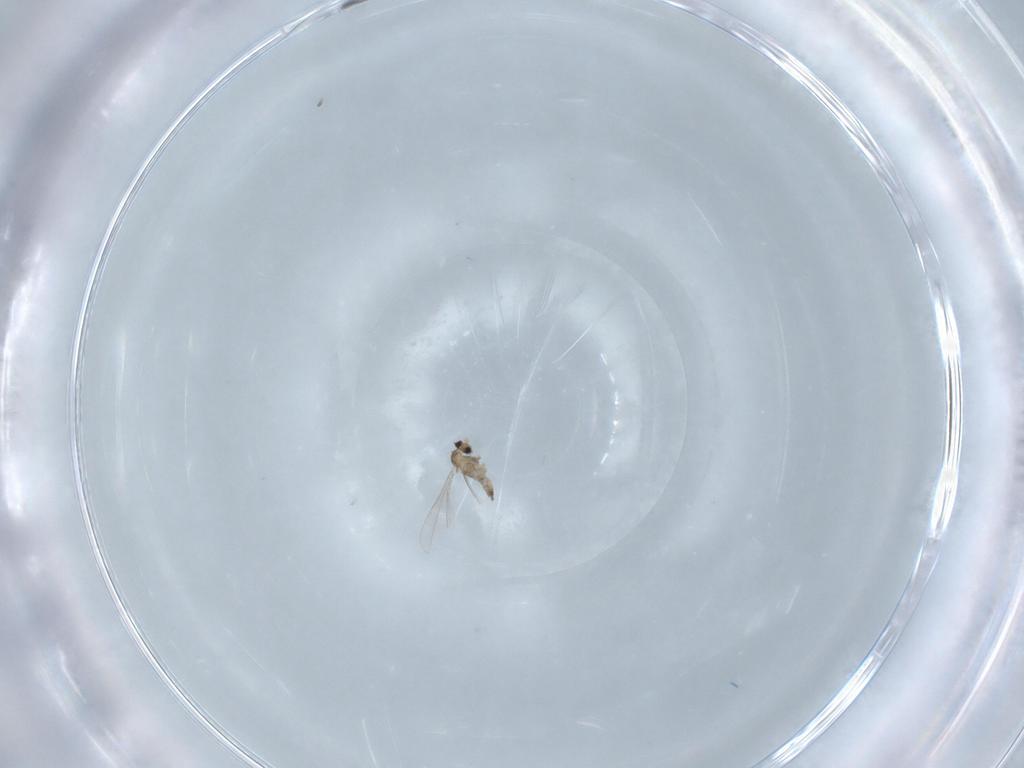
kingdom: Animalia
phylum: Arthropoda
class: Insecta
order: Diptera
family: Cecidomyiidae
